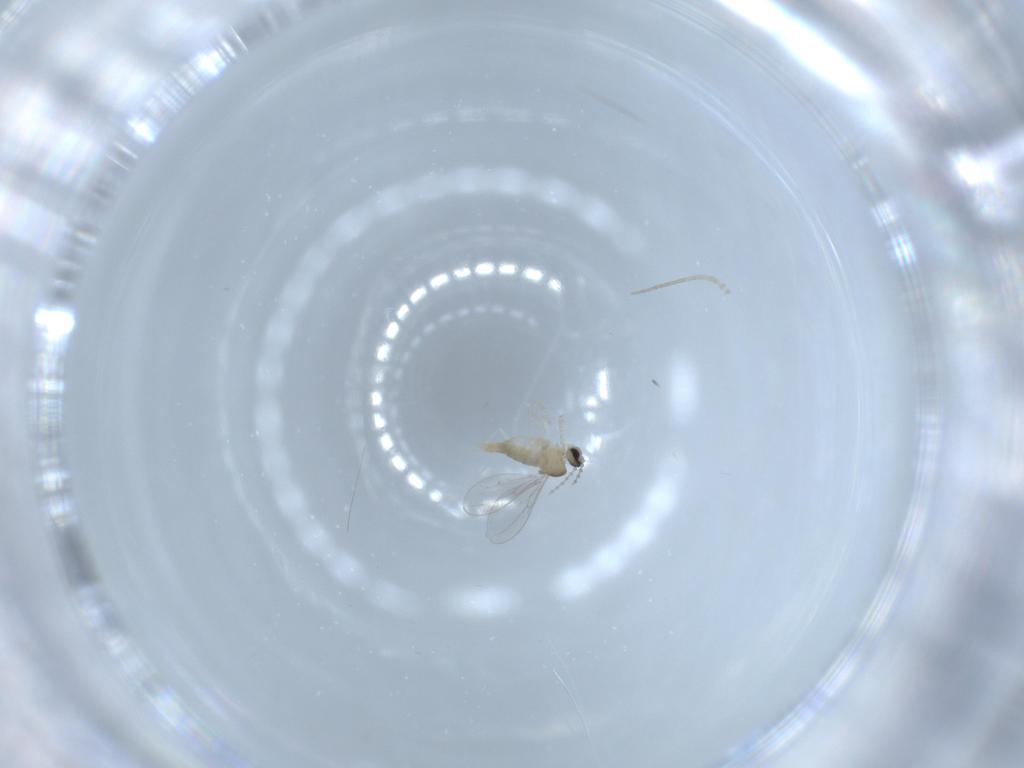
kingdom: Animalia
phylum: Arthropoda
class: Insecta
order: Diptera
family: Cecidomyiidae
